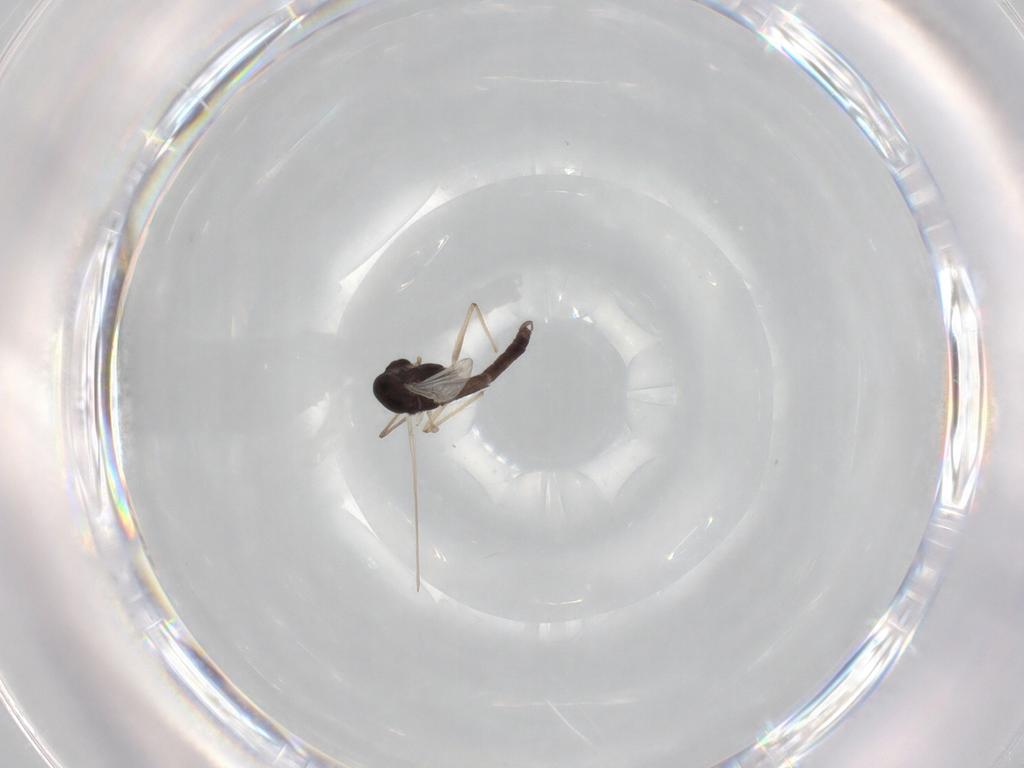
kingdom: Animalia
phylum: Arthropoda
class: Insecta
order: Diptera
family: Chironomidae
